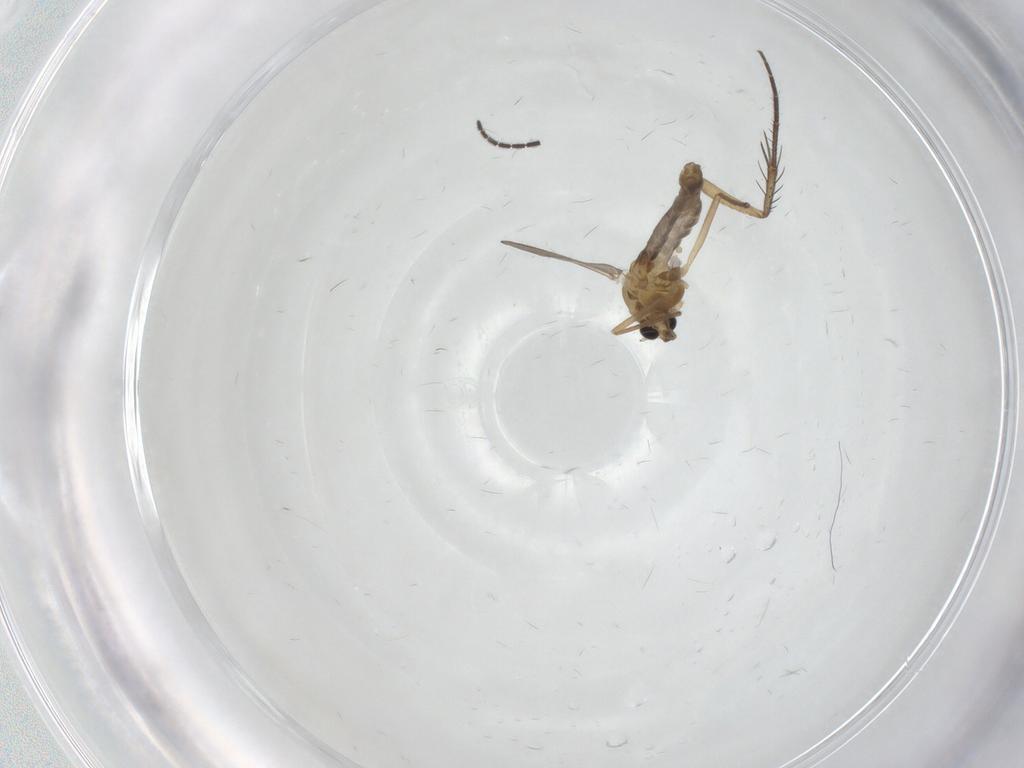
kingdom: Animalia
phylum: Arthropoda
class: Insecta
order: Diptera
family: Chironomidae
